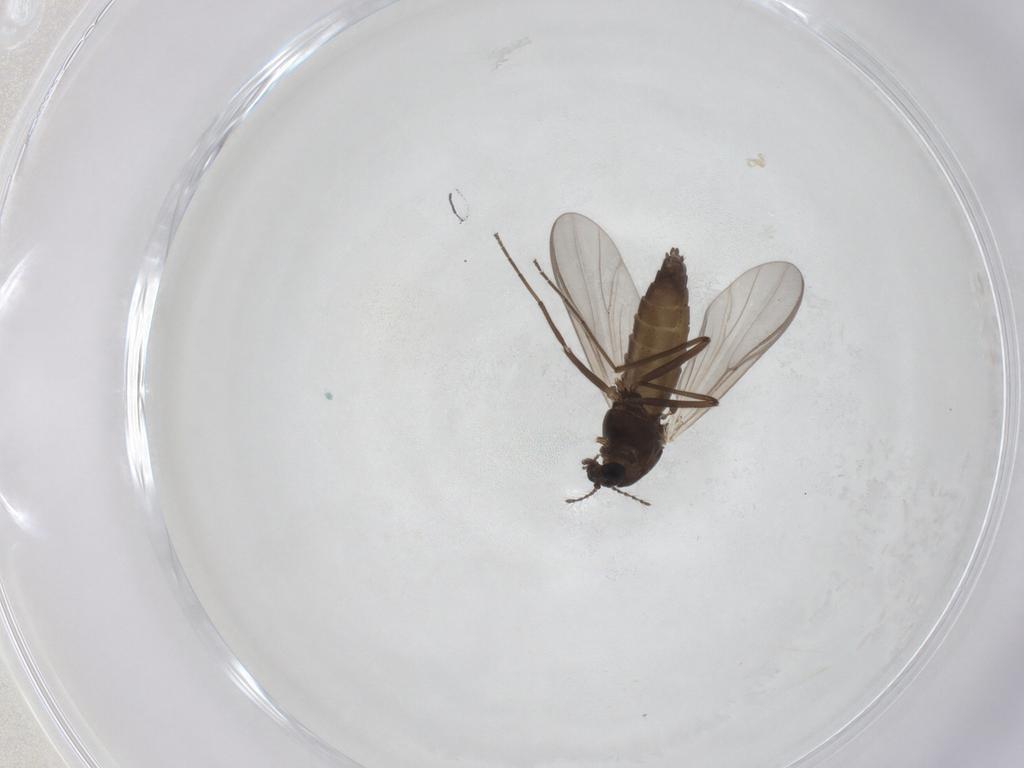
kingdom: Animalia
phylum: Arthropoda
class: Insecta
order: Diptera
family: Chironomidae
